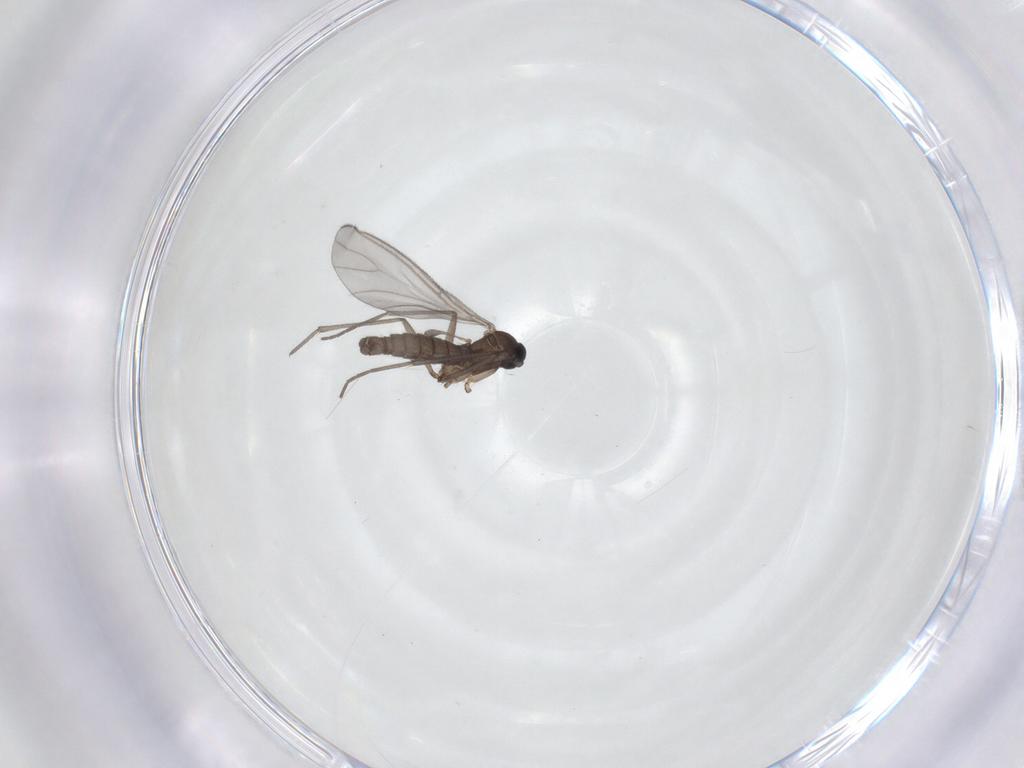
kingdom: Animalia
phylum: Arthropoda
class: Insecta
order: Diptera
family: Sciaridae
